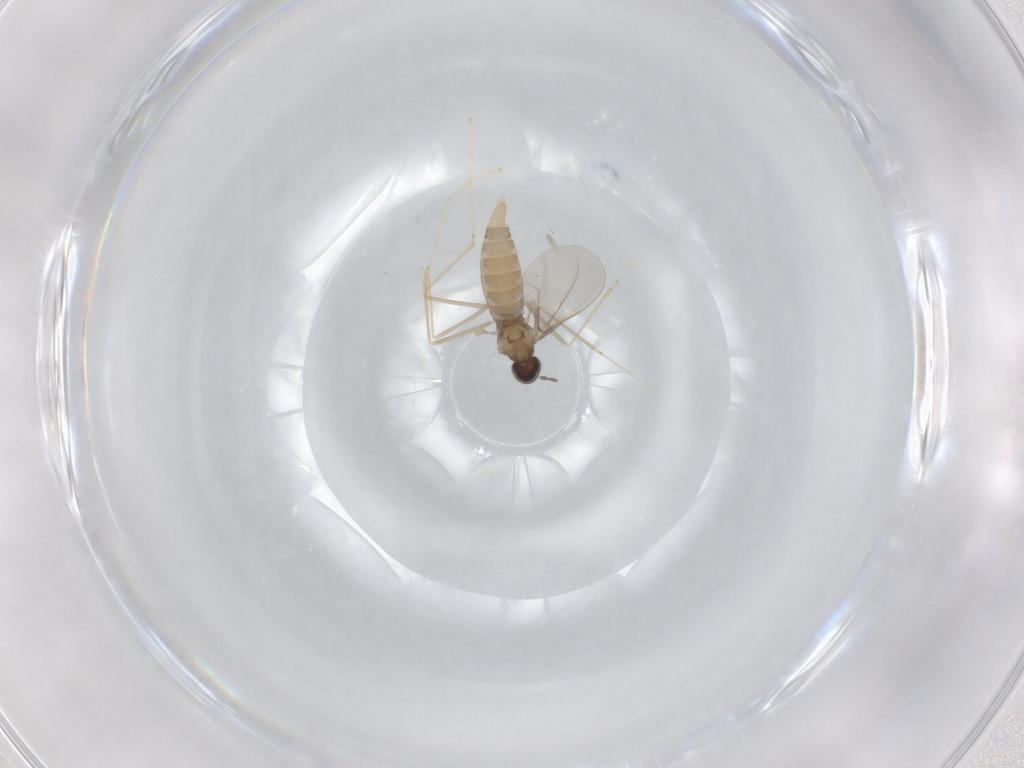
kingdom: Animalia
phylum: Arthropoda
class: Insecta
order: Diptera
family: Cecidomyiidae
